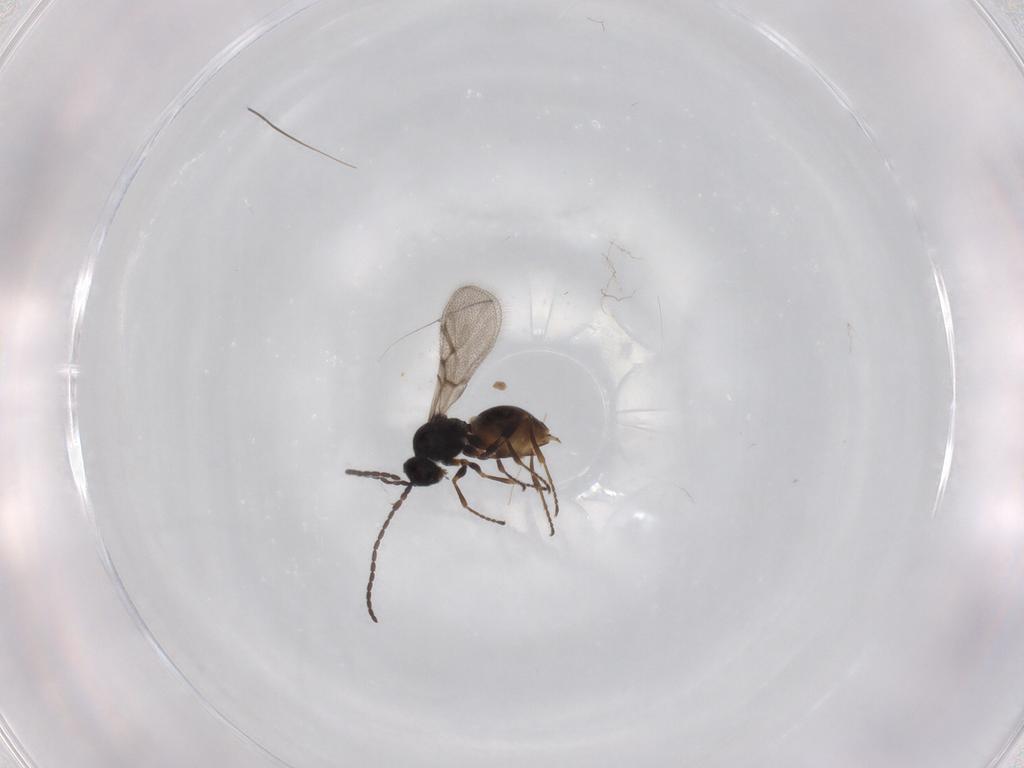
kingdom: Animalia
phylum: Arthropoda
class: Insecta
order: Hymenoptera
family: Figitidae
